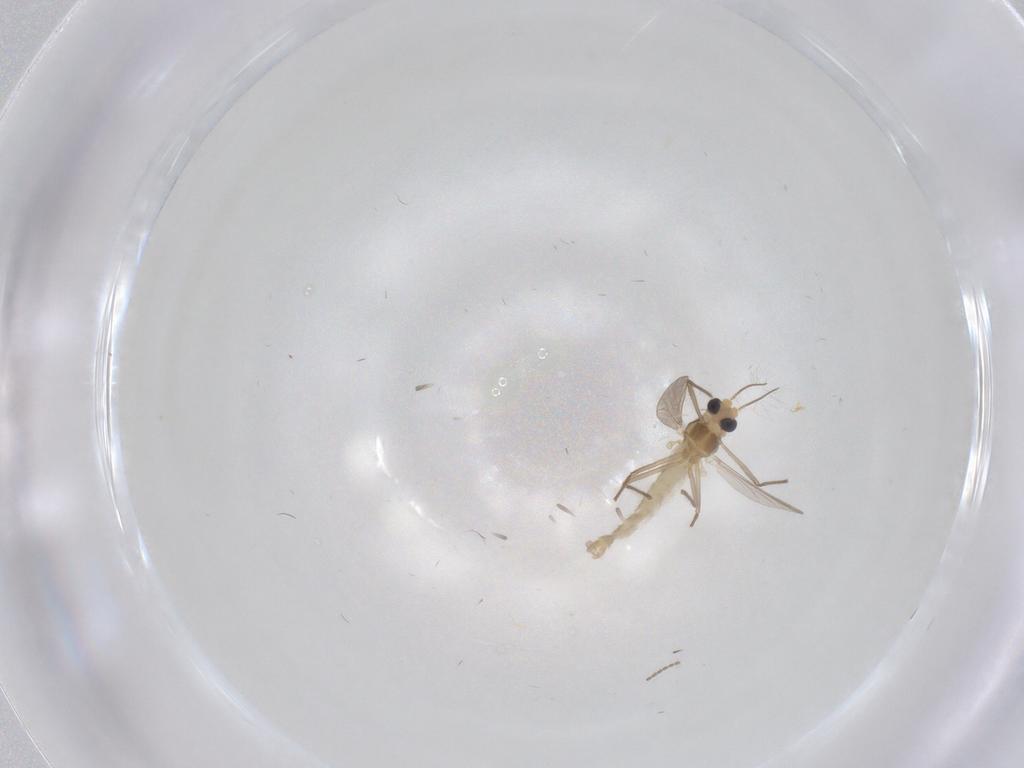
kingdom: Animalia
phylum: Arthropoda
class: Insecta
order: Diptera
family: Cecidomyiidae
